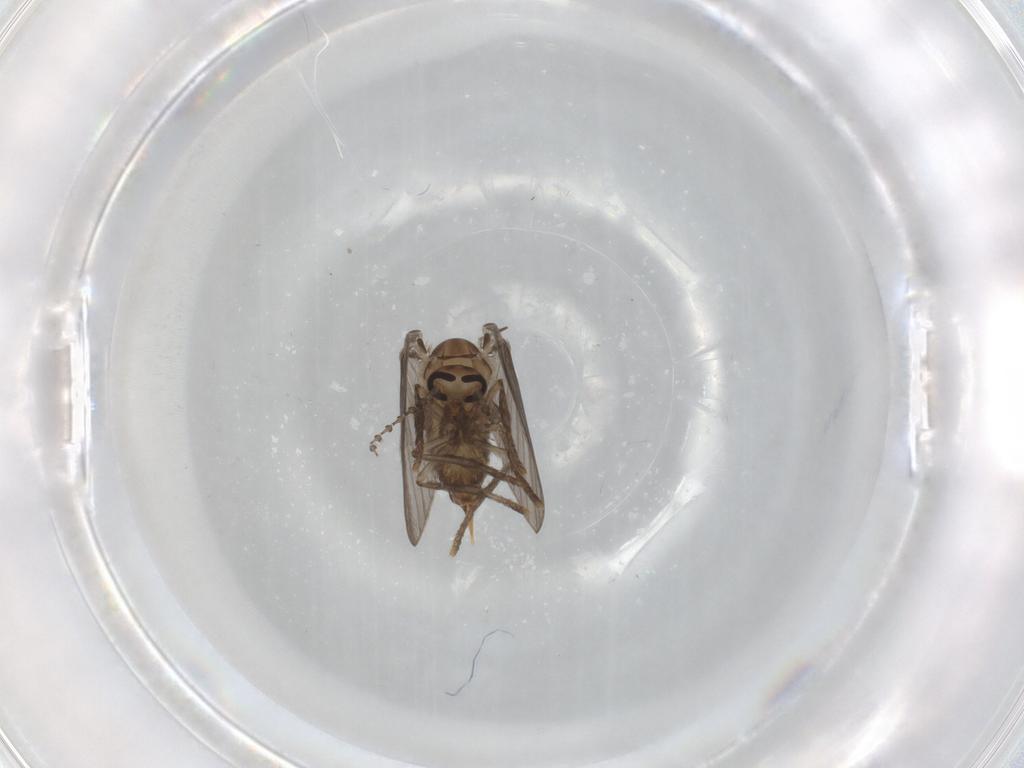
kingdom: Animalia
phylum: Arthropoda
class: Insecta
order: Diptera
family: Psychodidae
